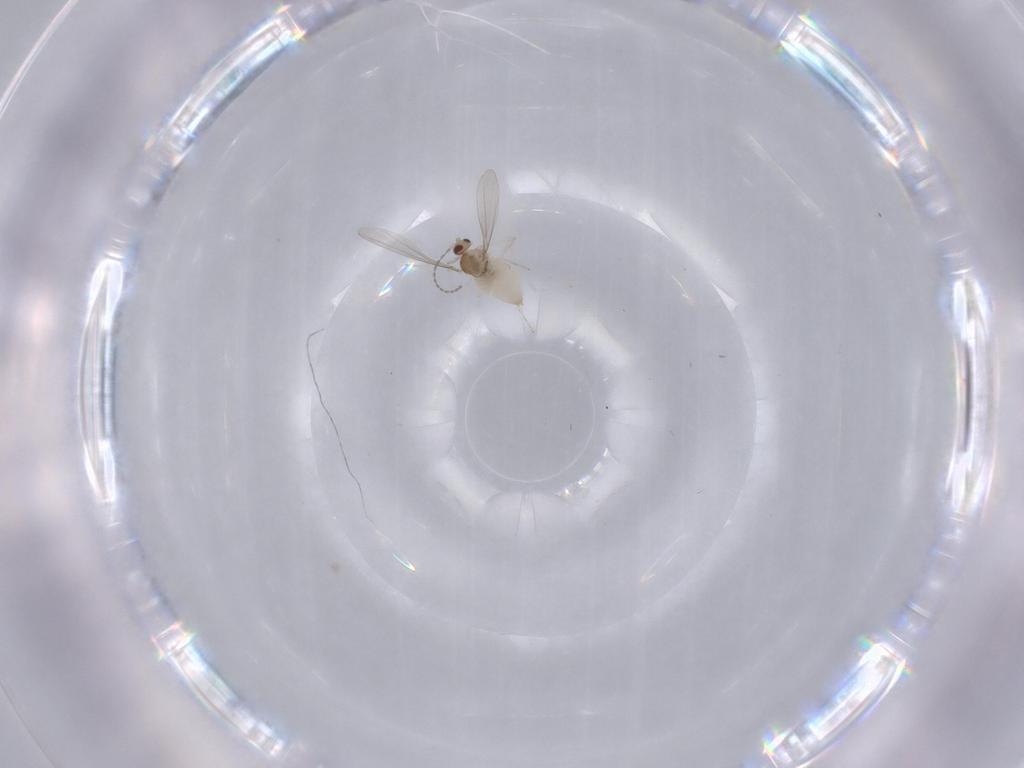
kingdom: Animalia
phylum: Arthropoda
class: Insecta
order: Diptera
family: Cecidomyiidae
